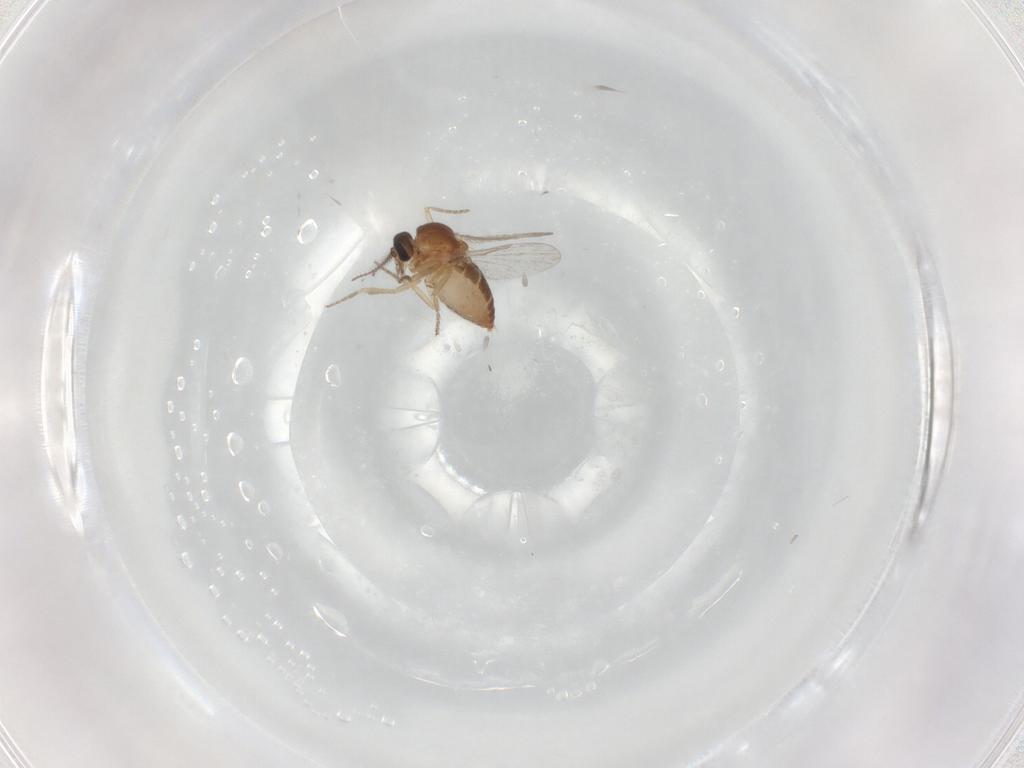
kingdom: Animalia
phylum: Arthropoda
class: Insecta
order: Diptera
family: Ceratopogonidae
